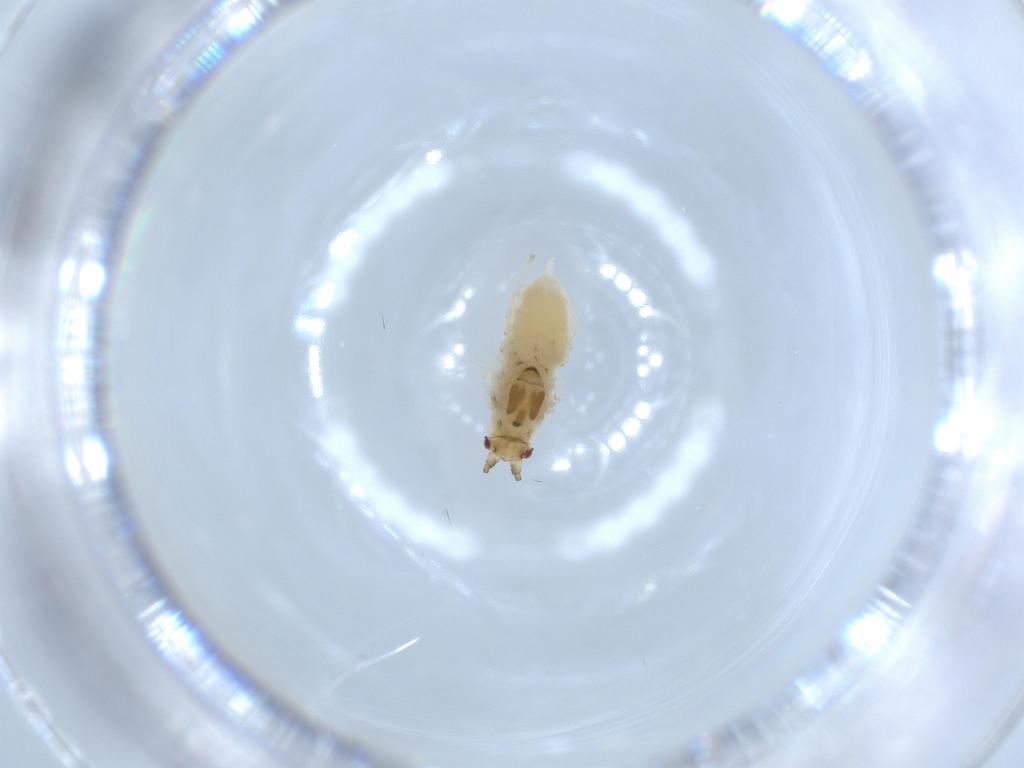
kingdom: Animalia
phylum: Arthropoda
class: Insecta
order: Hemiptera
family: Aphididae
